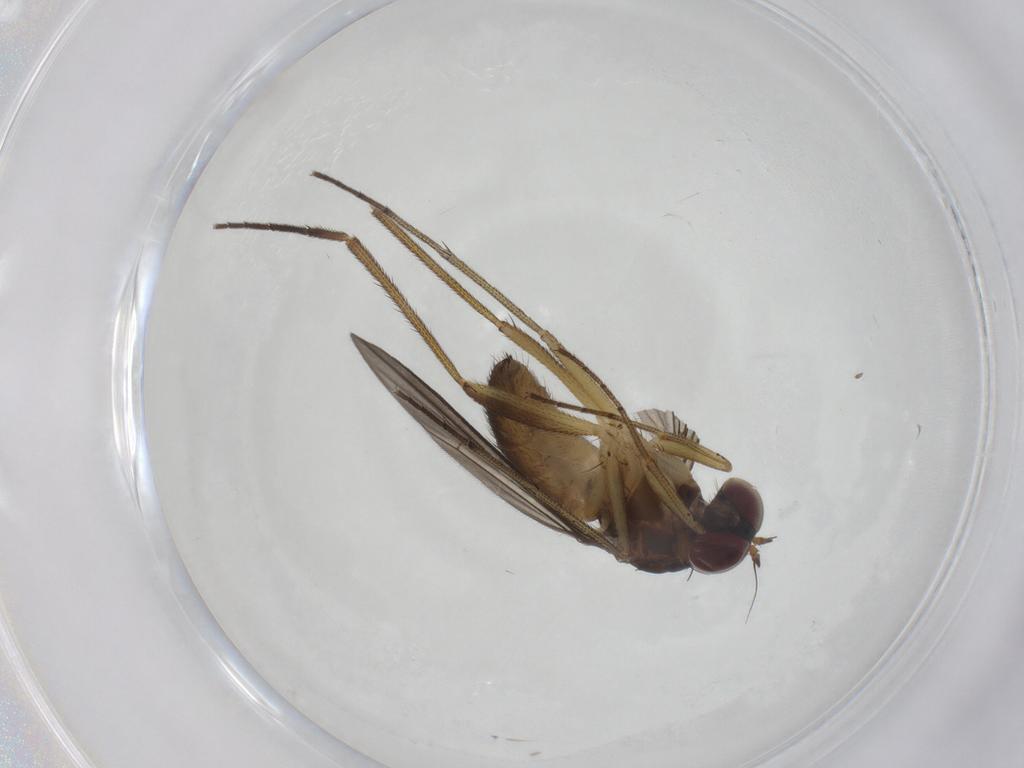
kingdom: Animalia
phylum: Arthropoda
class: Insecta
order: Diptera
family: Dolichopodidae
